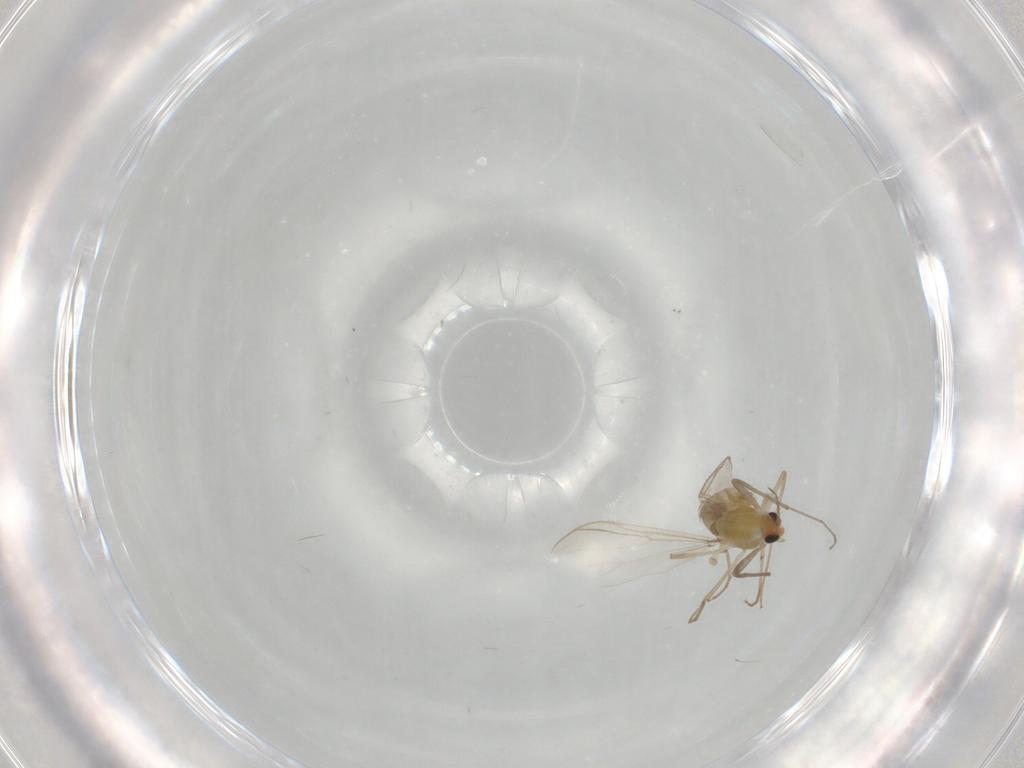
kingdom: Animalia
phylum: Arthropoda
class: Insecta
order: Diptera
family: Chironomidae
